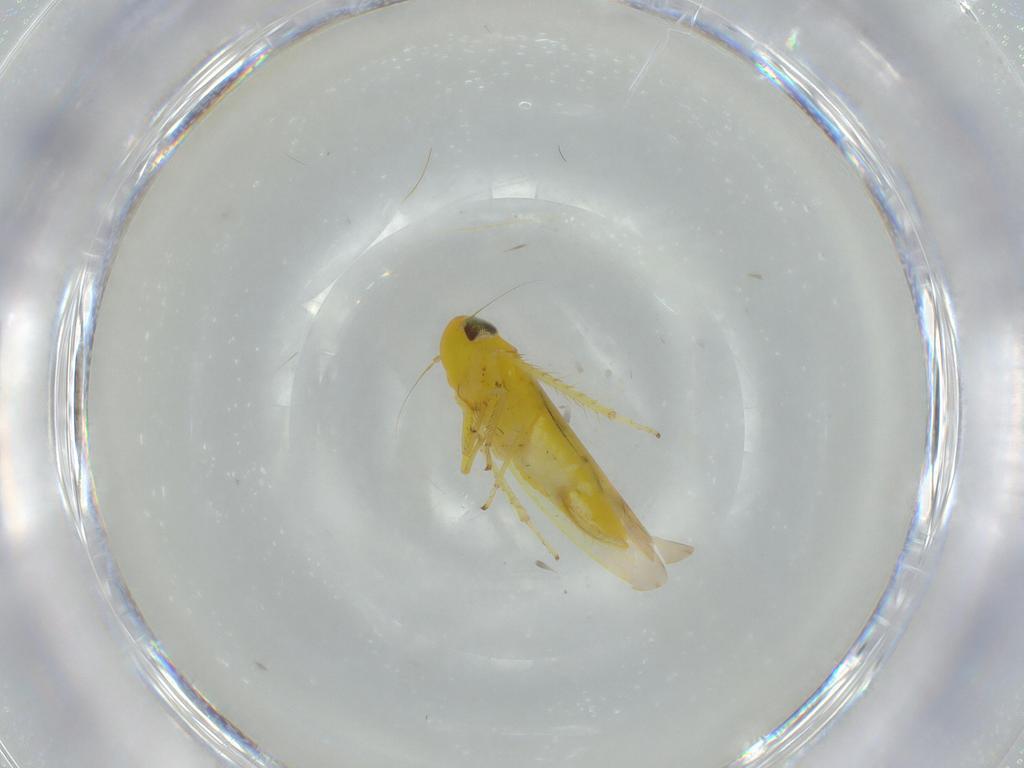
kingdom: Animalia
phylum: Arthropoda
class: Insecta
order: Hemiptera
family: Cicadellidae
